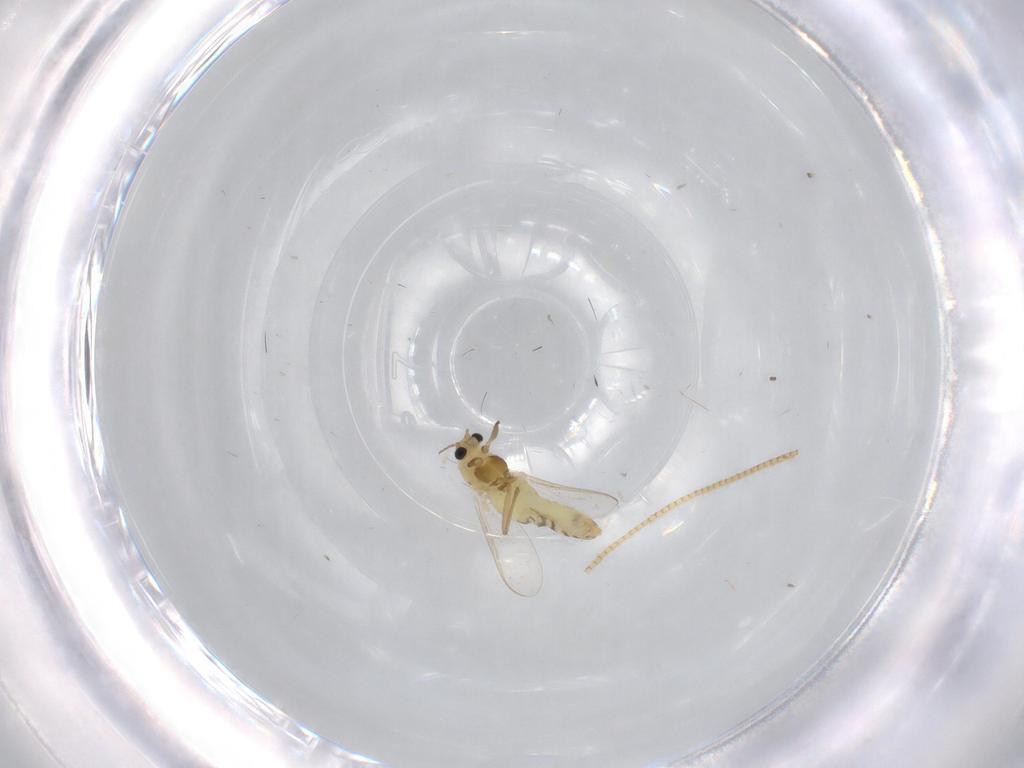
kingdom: Animalia
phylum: Arthropoda
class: Insecta
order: Diptera
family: Chironomidae
